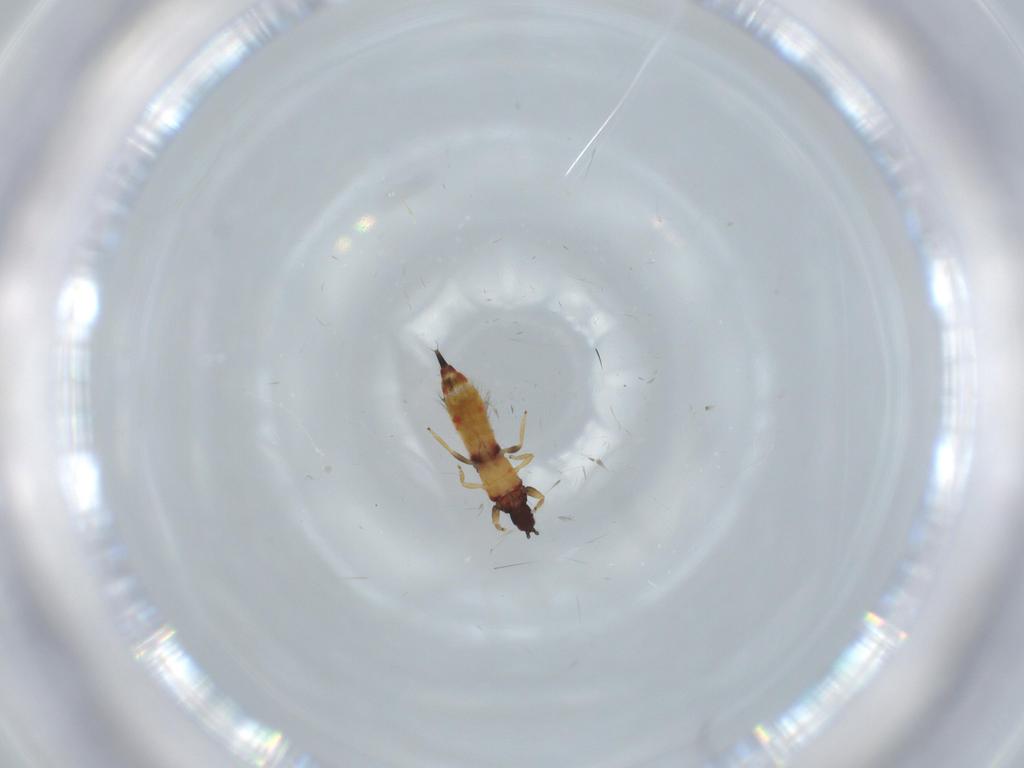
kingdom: Animalia
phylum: Arthropoda
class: Insecta
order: Thysanoptera
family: Phlaeothripidae
